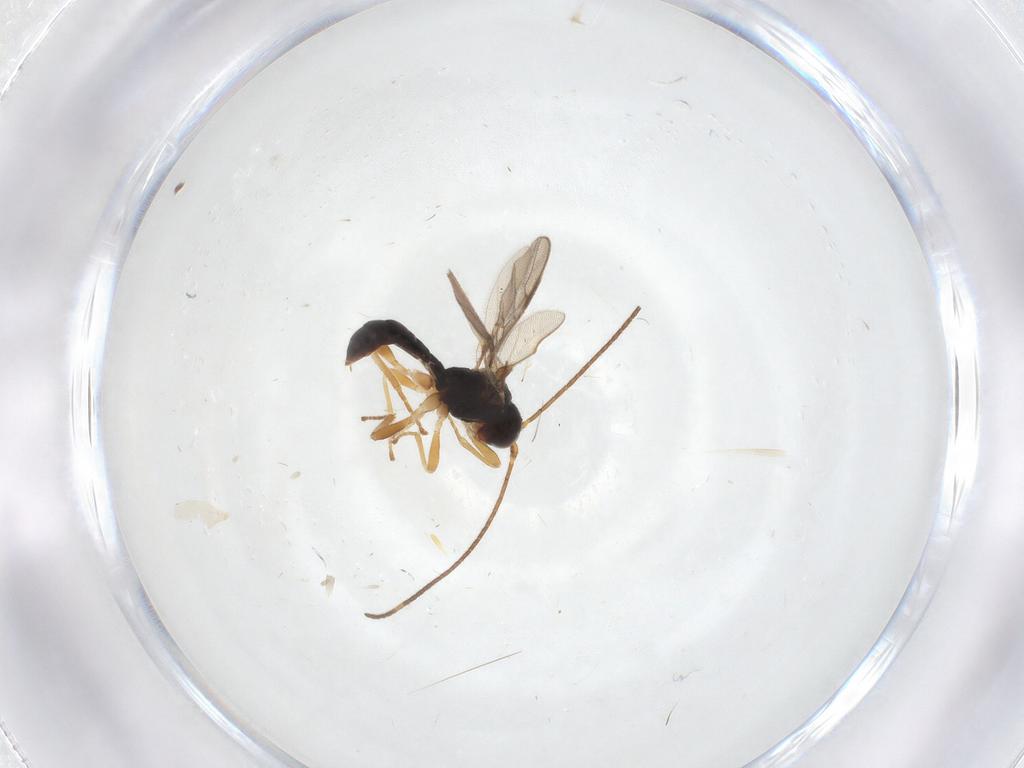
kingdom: Animalia
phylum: Arthropoda
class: Insecta
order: Hymenoptera
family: Braconidae
